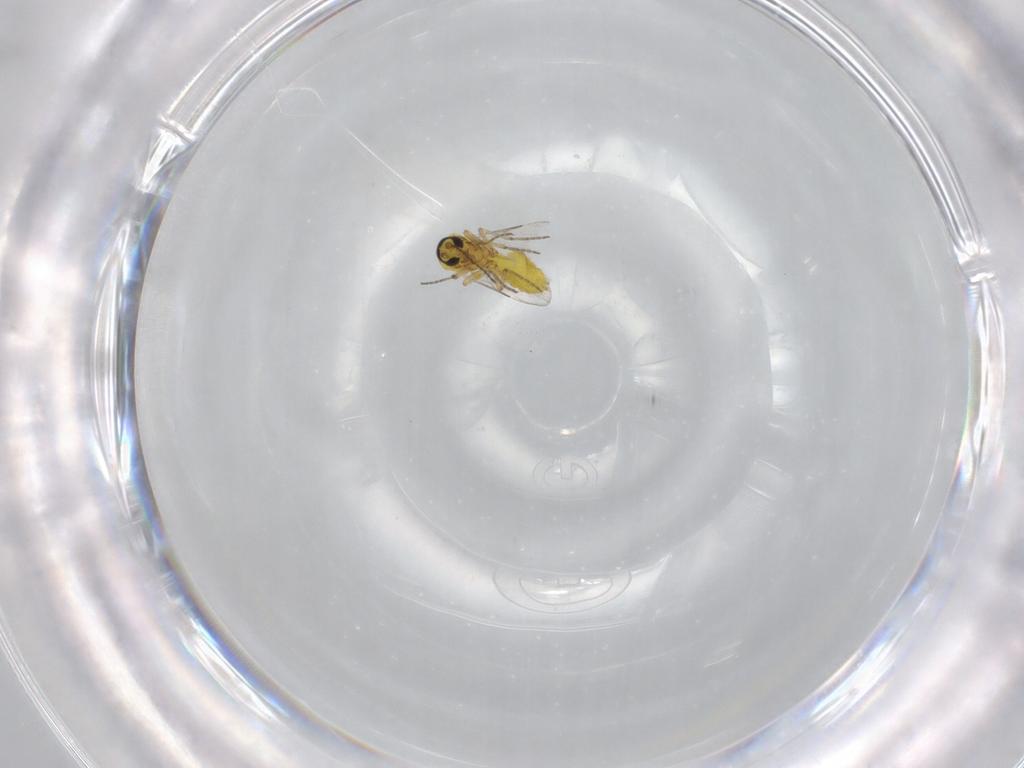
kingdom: Animalia
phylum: Arthropoda
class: Insecta
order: Diptera
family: Ceratopogonidae
